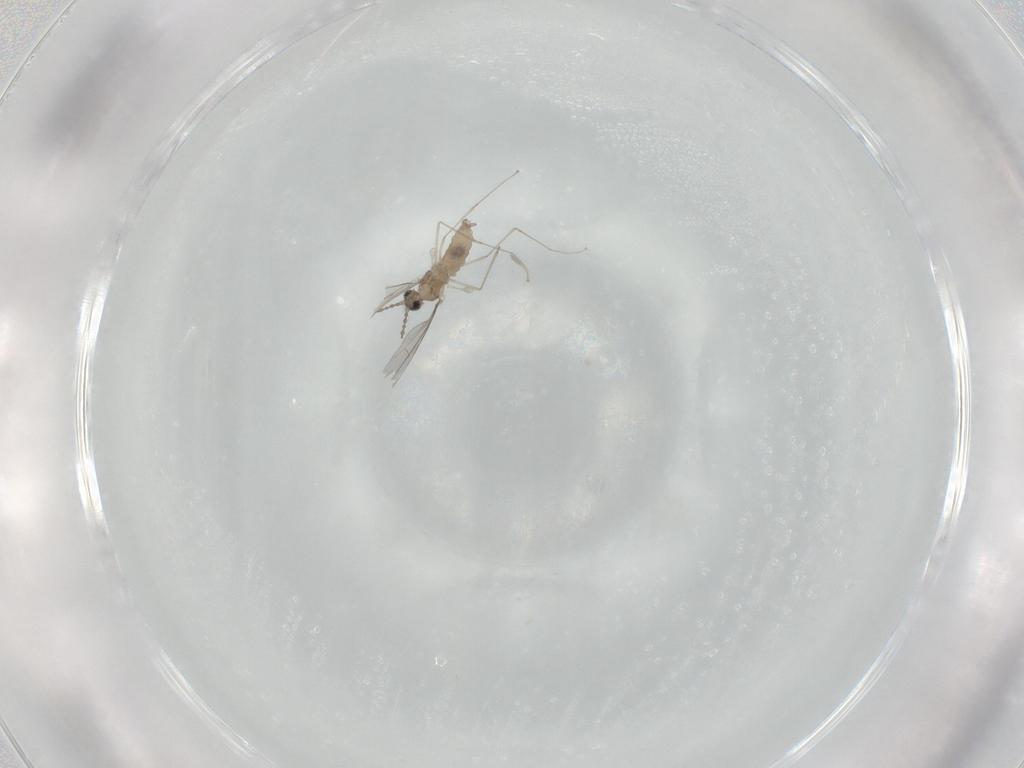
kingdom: Animalia
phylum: Arthropoda
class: Insecta
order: Diptera
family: Cecidomyiidae
